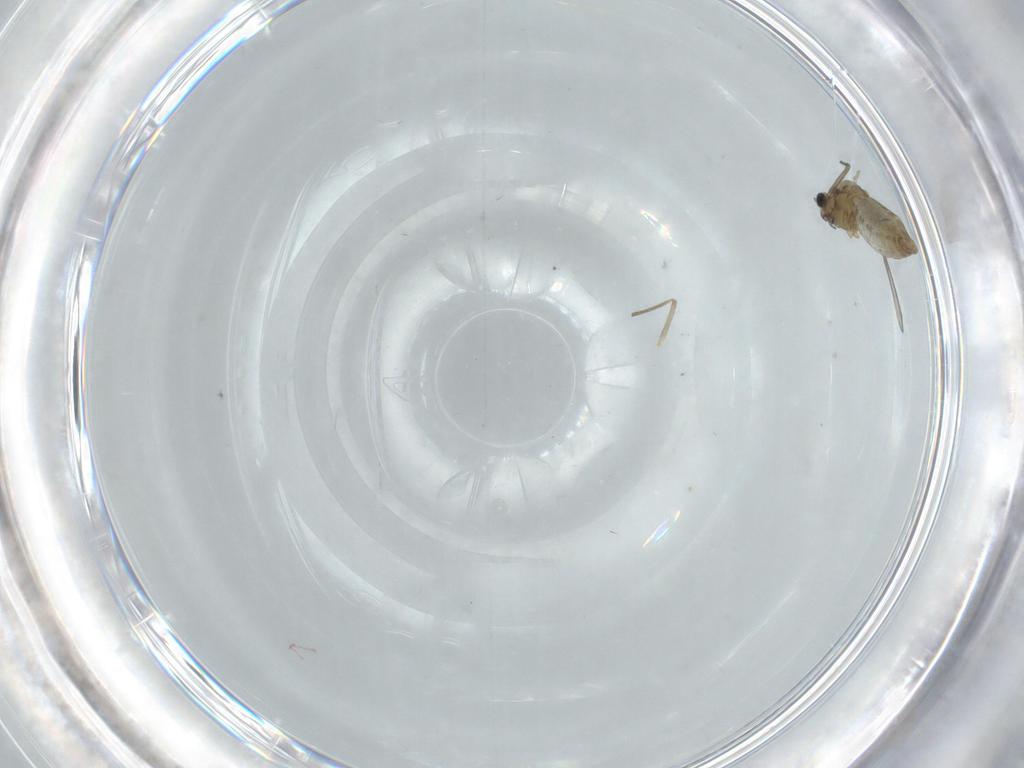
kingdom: Animalia
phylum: Arthropoda
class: Insecta
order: Diptera
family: Chironomidae
